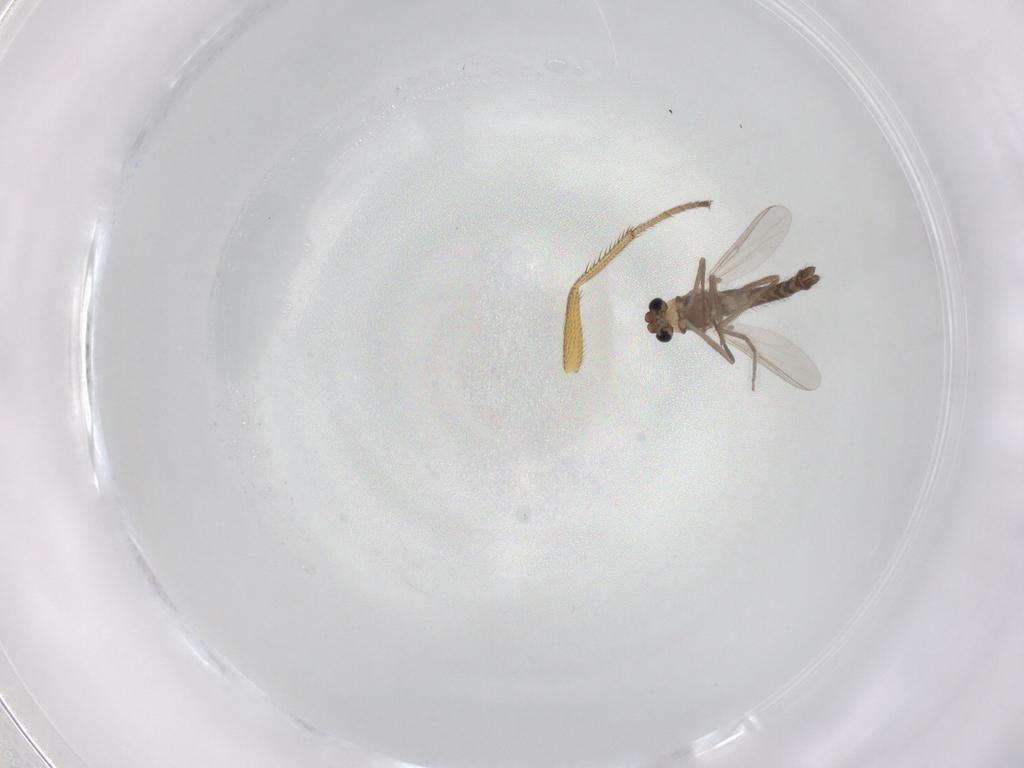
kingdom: Animalia
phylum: Arthropoda
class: Insecta
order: Diptera
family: Chironomidae
